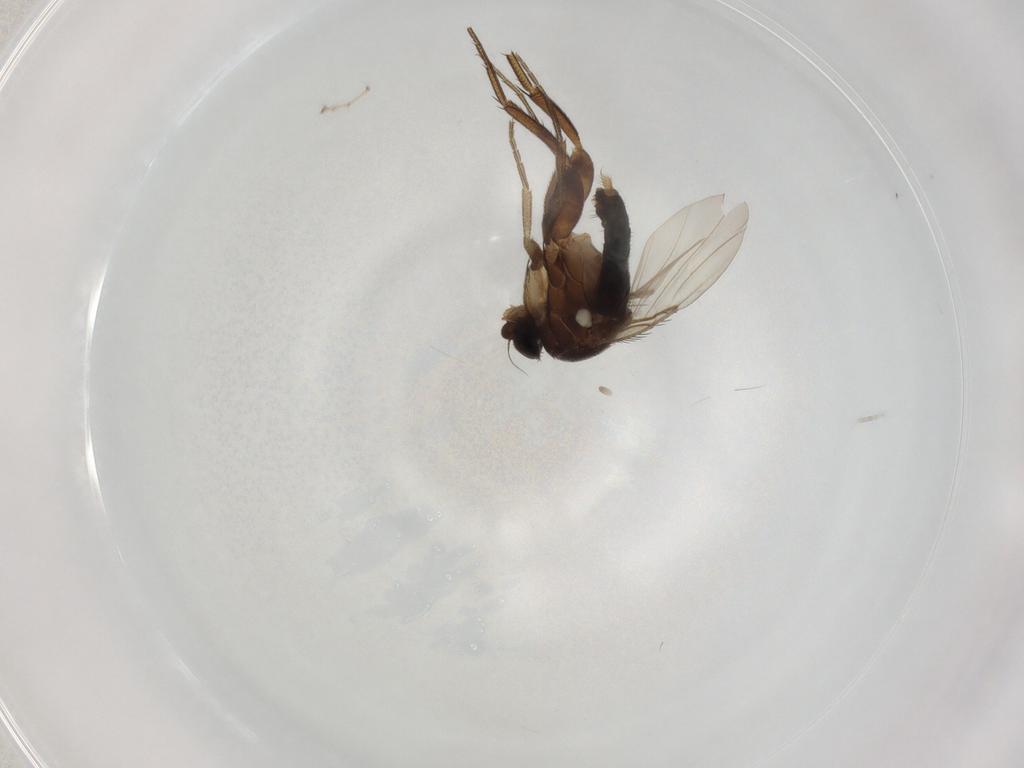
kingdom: Animalia
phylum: Arthropoda
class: Insecta
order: Diptera
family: Phoridae
